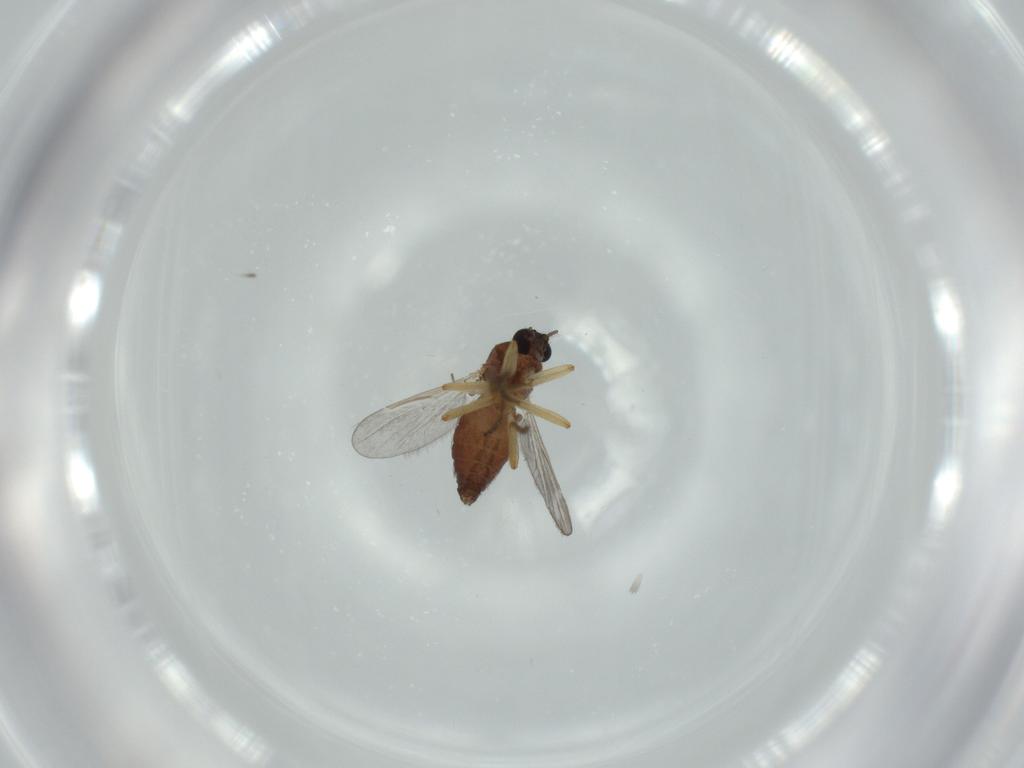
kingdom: Animalia
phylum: Arthropoda
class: Insecta
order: Diptera
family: Ceratopogonidae
